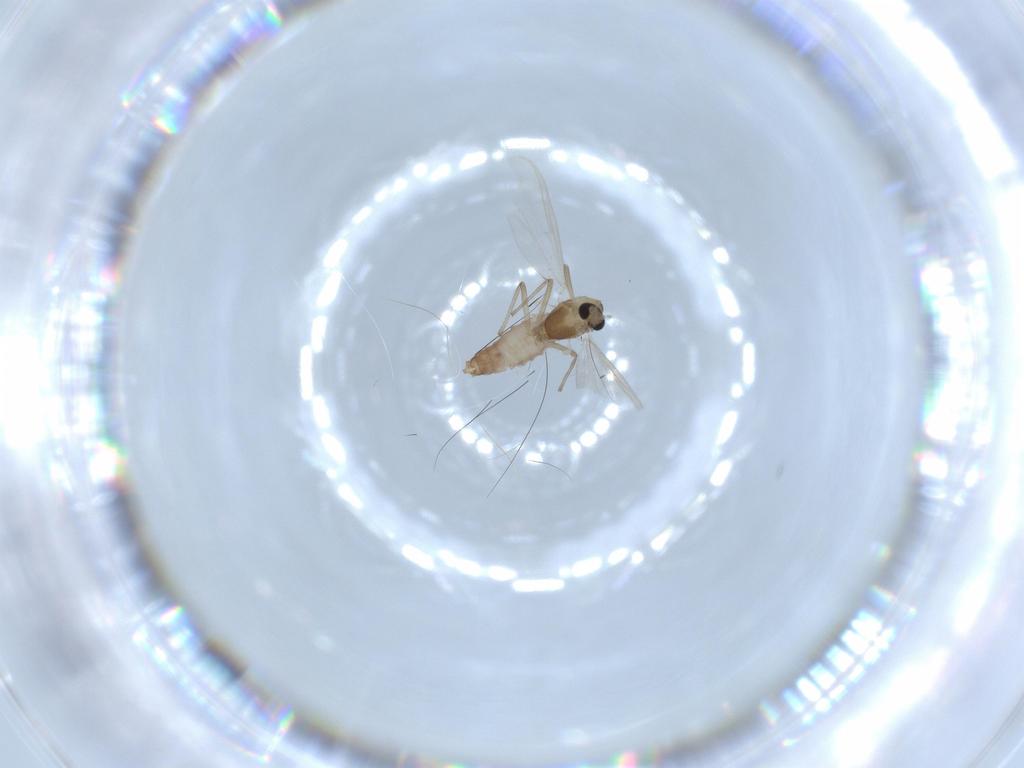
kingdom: Animalia
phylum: Arthropoda
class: Insecta
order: Diptera
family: Chironomidae
